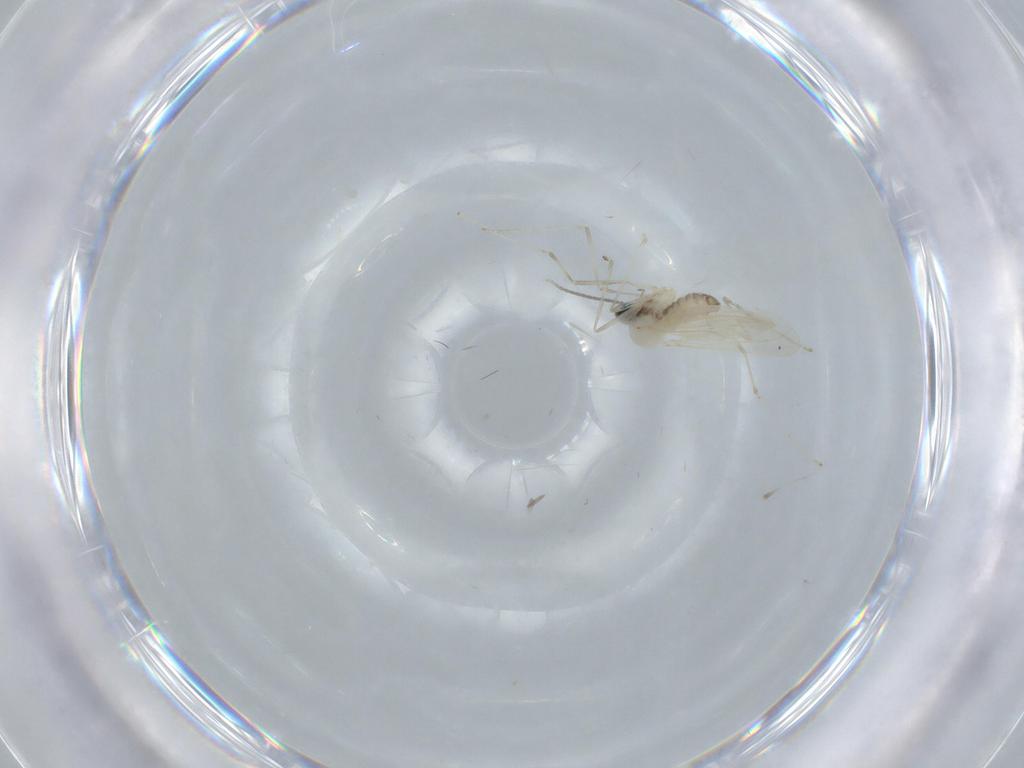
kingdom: Animalia
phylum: Arthropoda
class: Insecta
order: Diptera
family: Cecidomyiidae
